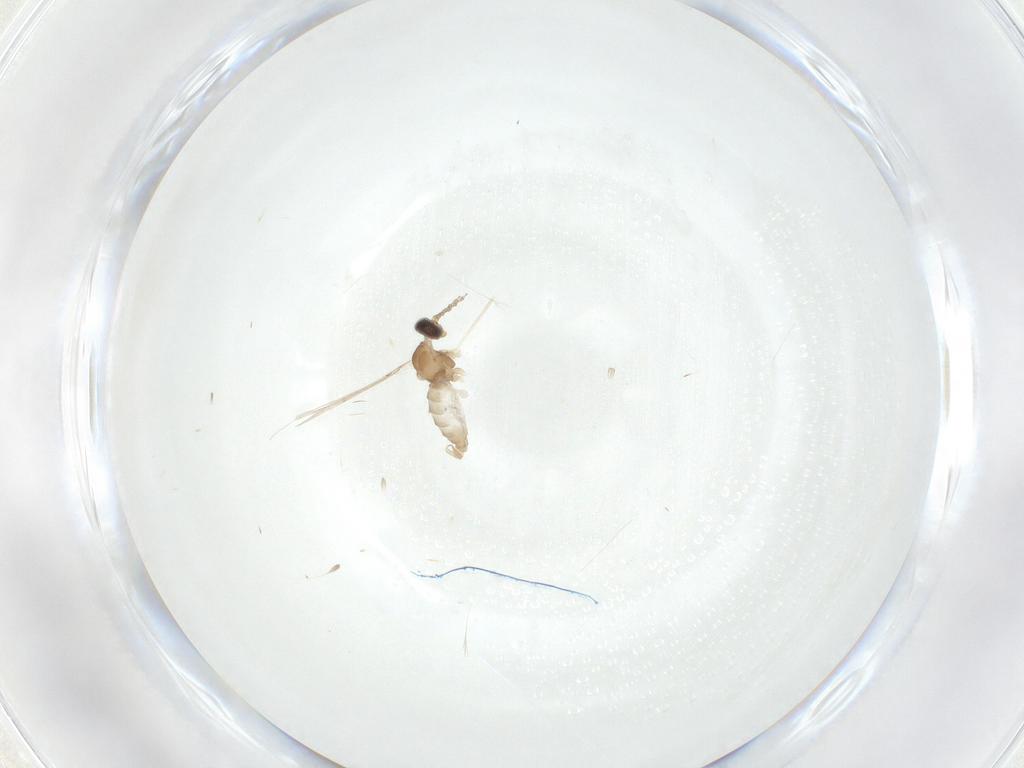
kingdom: Animalia
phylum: Arthropoda
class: Insecta
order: Diptera
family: Cecidomyiidae
